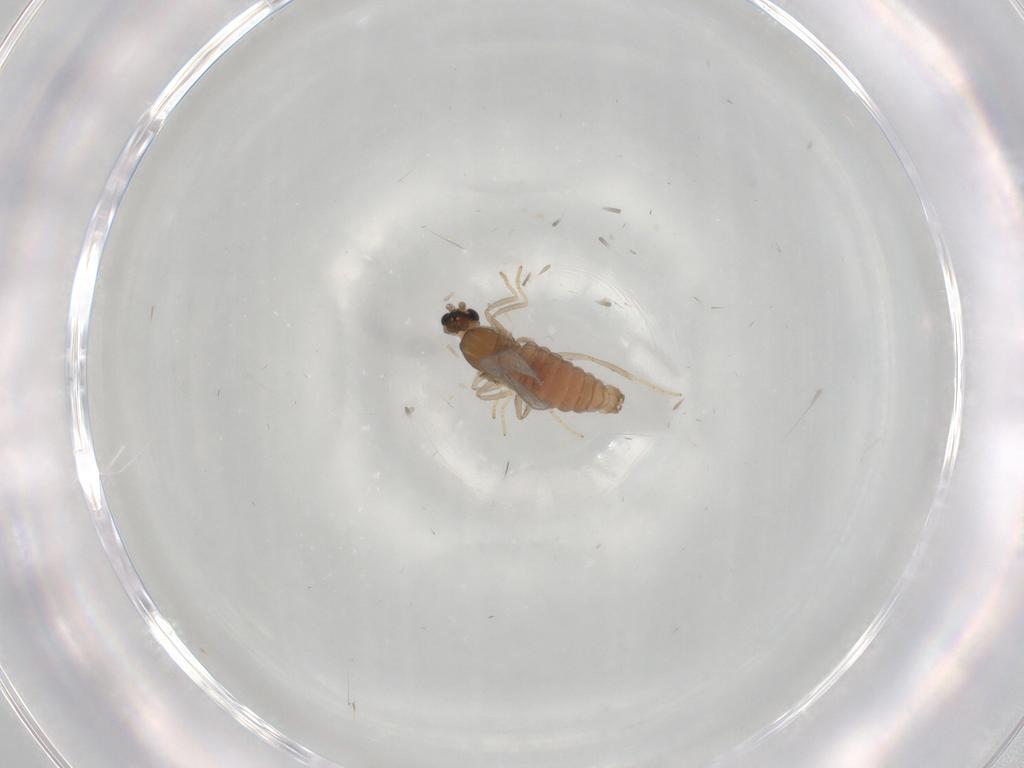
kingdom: Animalia
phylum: Arthropoda
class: Insecta
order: Diptera
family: Cecidomyiidae
